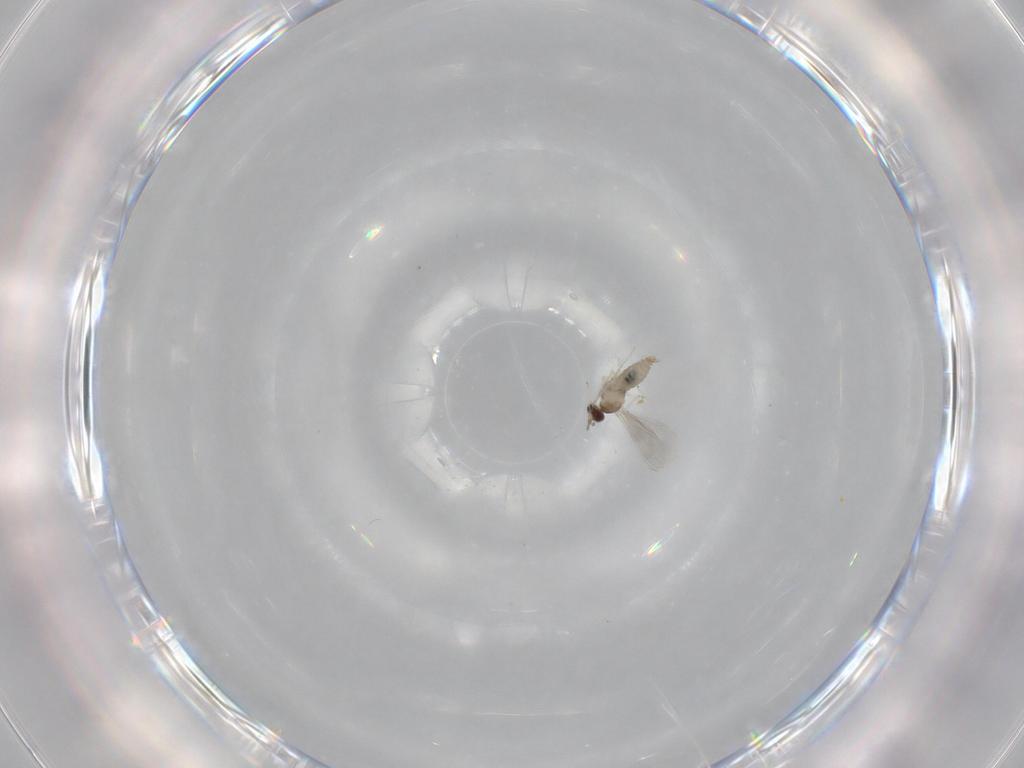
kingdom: Animalia
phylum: Arthropoda
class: Insecta
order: Diptera
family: Cecidomyiidae
